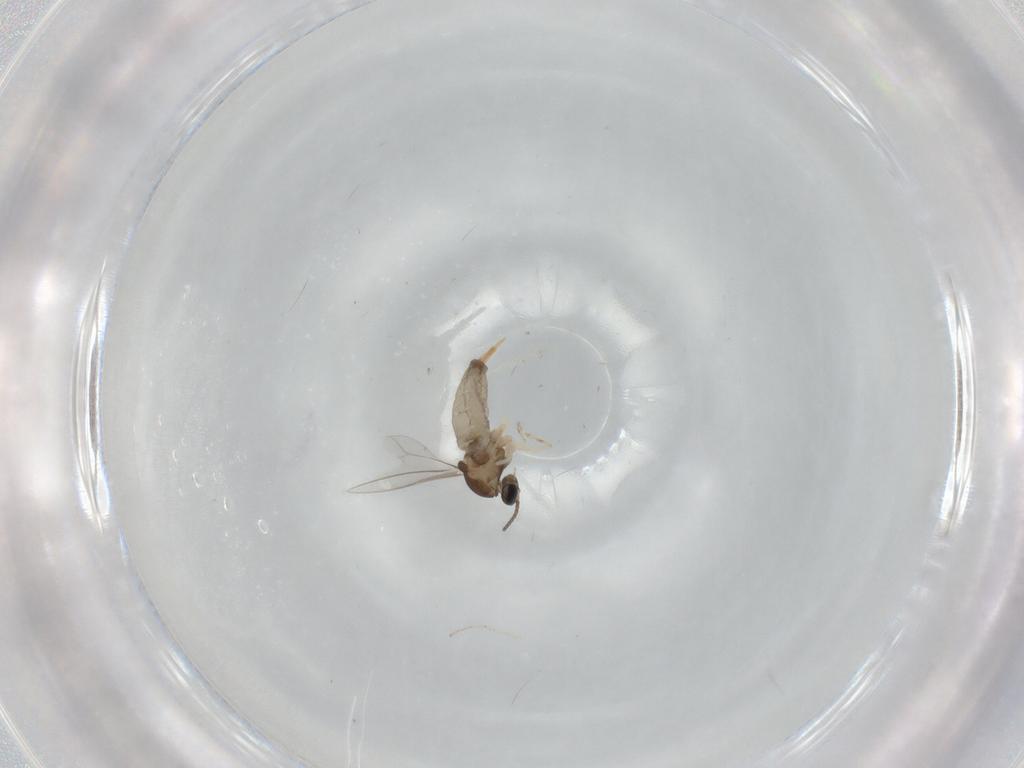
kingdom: Animalia
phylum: Arthropoda
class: Insecta
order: Diptera
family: Cecidomyiidae
